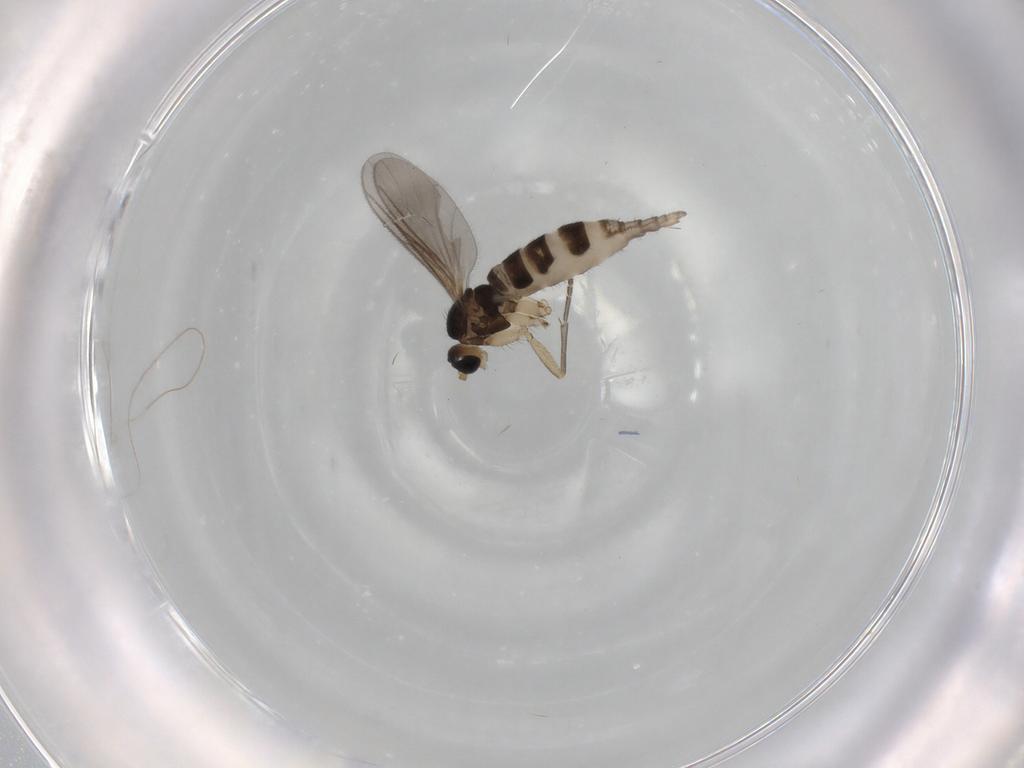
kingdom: Animalia
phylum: Arthropoda
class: Insecta
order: Diptera
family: Sciaridae
